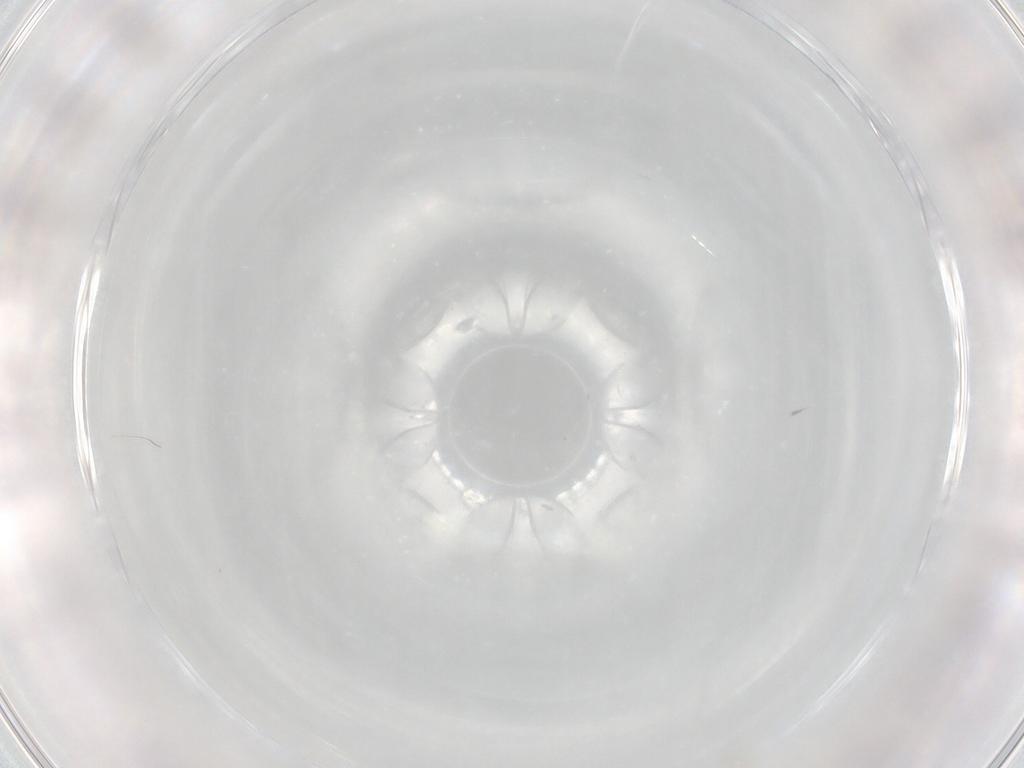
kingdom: Animalia
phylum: Arthropoda
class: Arachnida
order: Trombidiformes
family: Eupodidae
